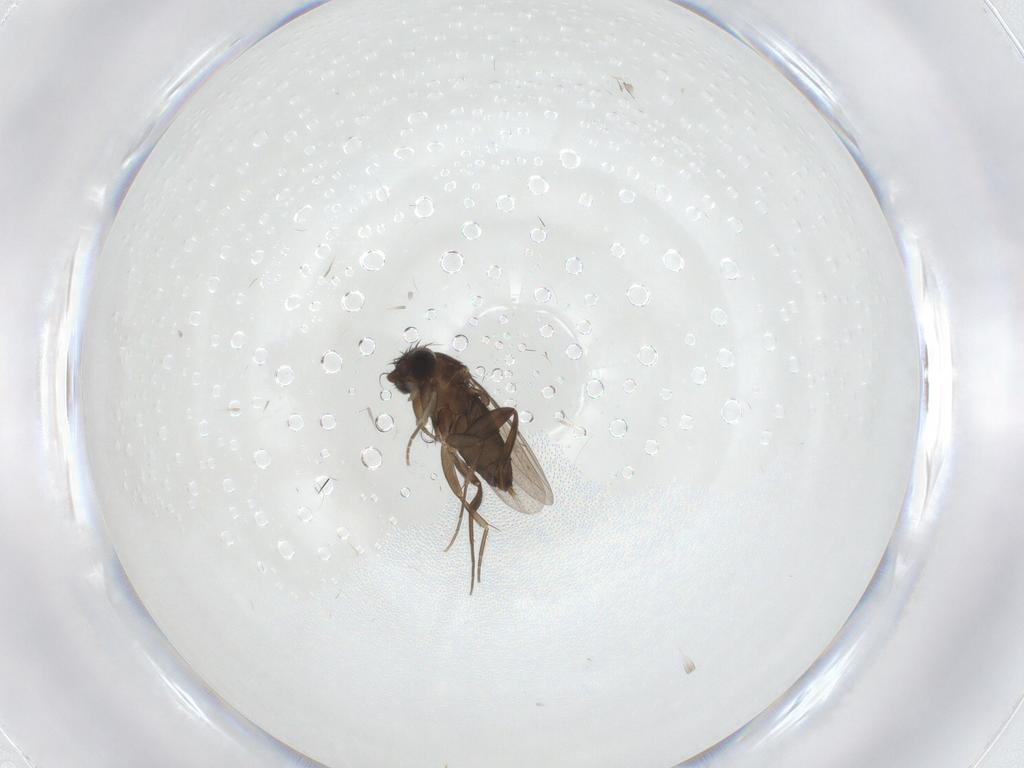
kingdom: Animalia
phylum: Arthropoda
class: Insecta
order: Diptera
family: Phoridae
